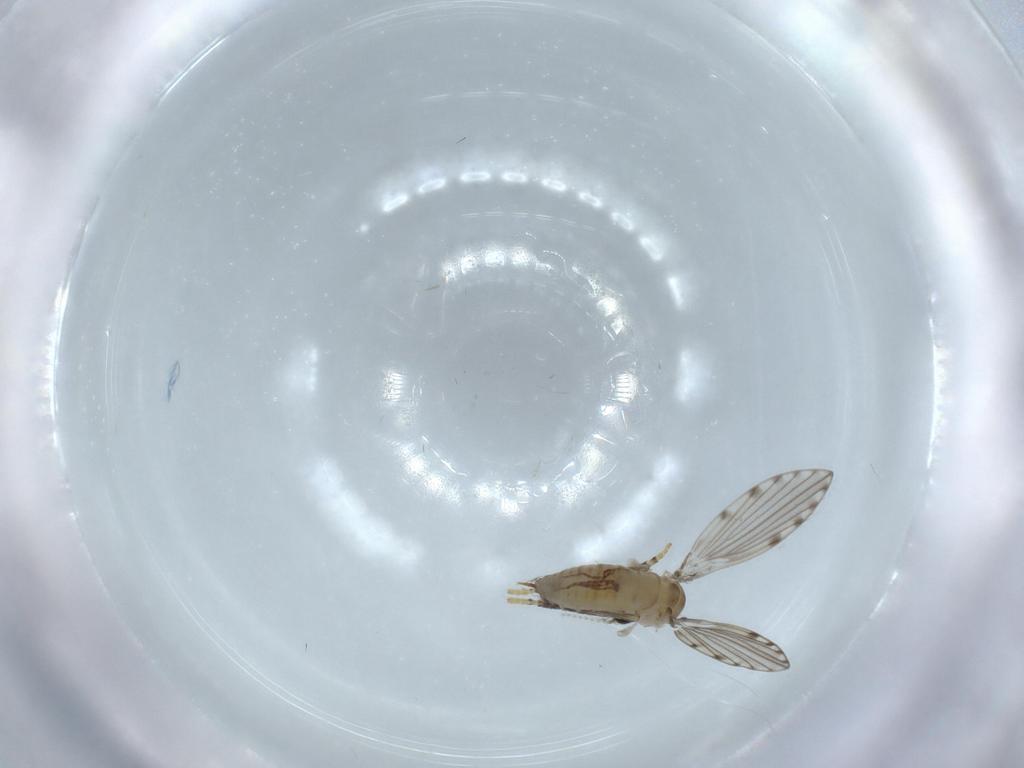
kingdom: Animalia
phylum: Arthropoda
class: Insecta
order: Diptera
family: Psychodidae
